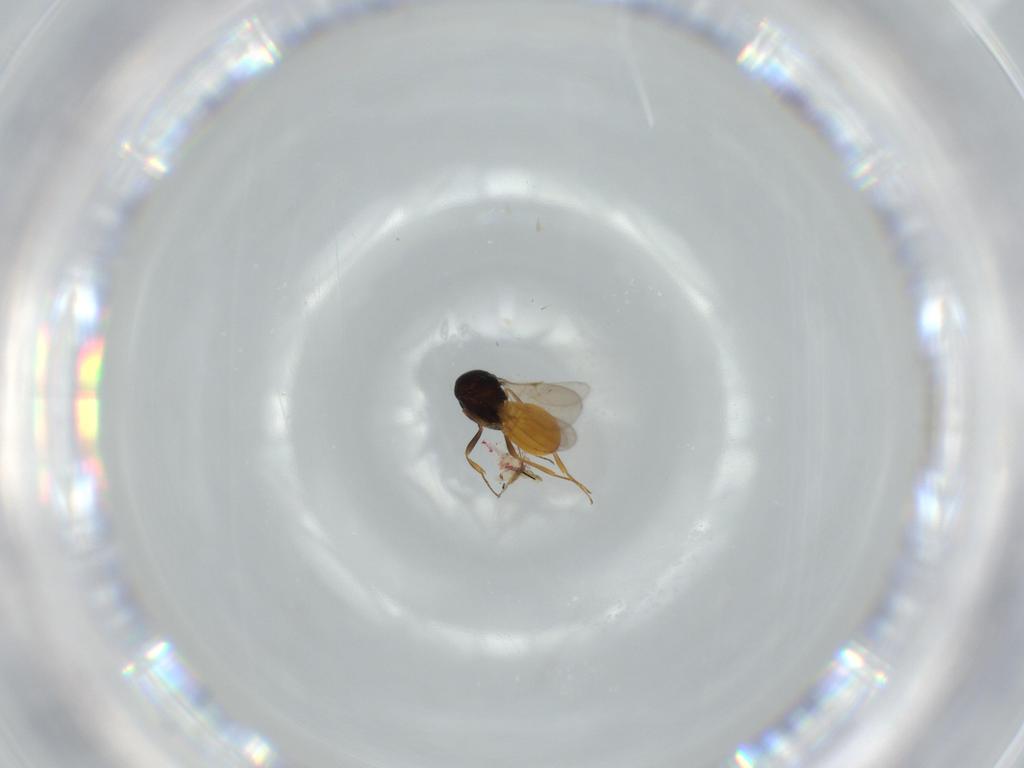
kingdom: Animalia
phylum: Arthropoda
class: Insecta
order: Hymenoptera
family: Scelionidae
